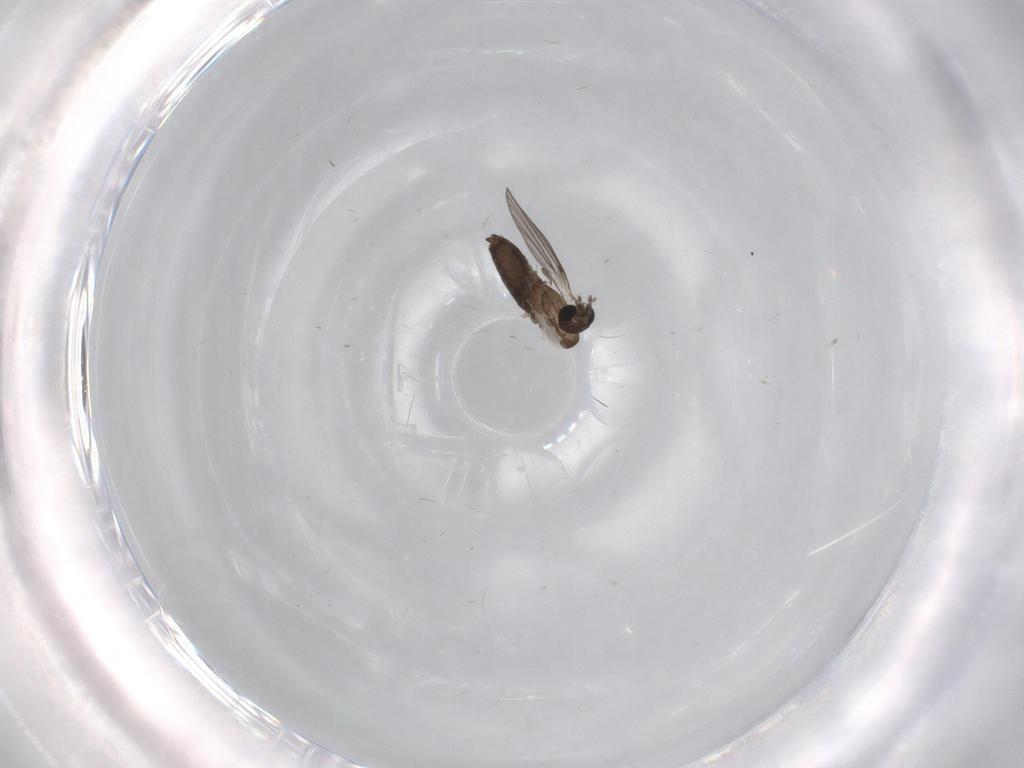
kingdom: Animalia
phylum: Arthropoda
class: Insecta
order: Diptera
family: Cecidomyiidae
